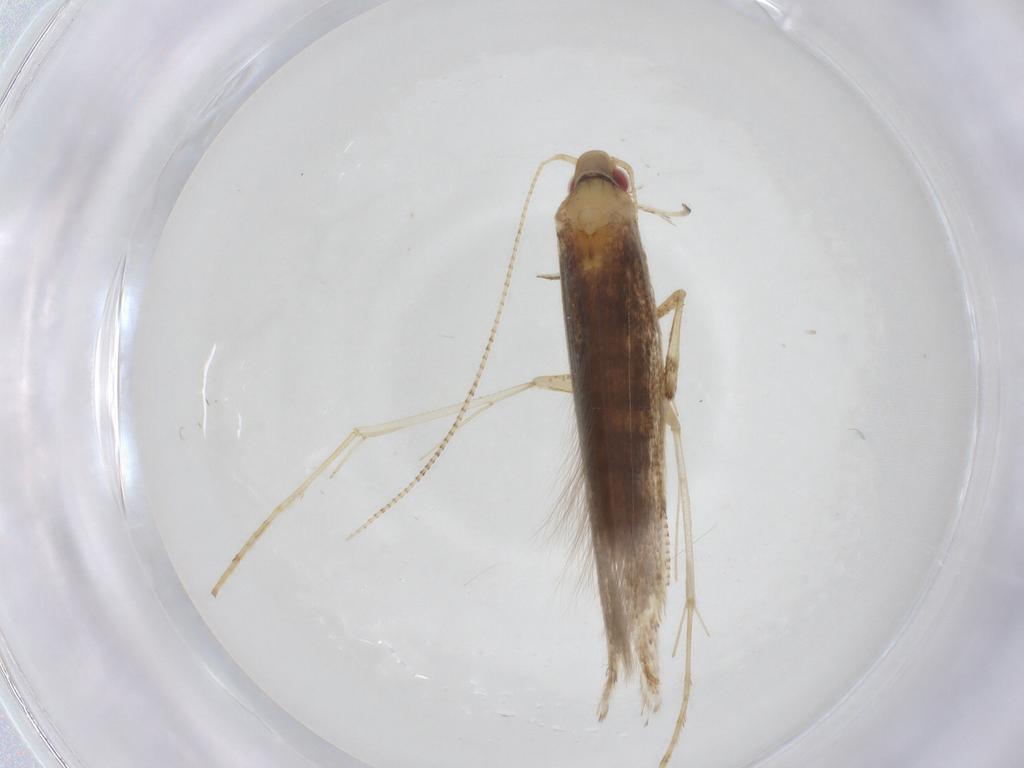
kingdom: Animalia
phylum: Arthropoda
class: Insecta
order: Lepidoptera
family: Gracillariidae
